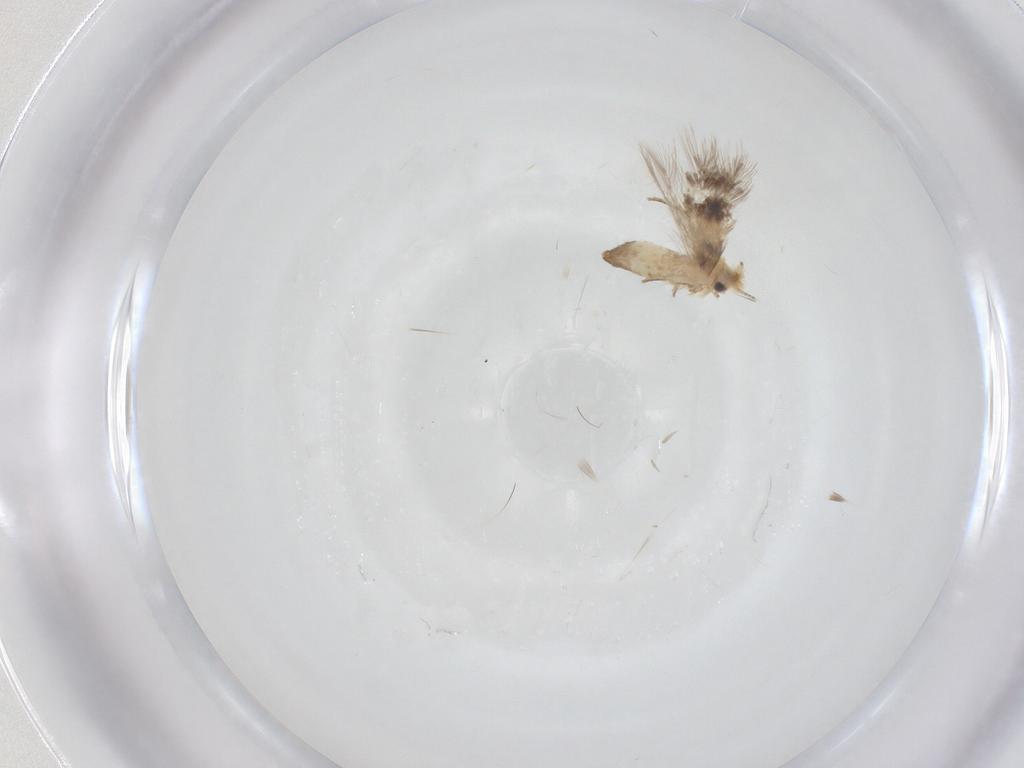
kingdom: Animalia
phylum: Arthropoda
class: Insecta
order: Lepidoptera
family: Nepticulidae
